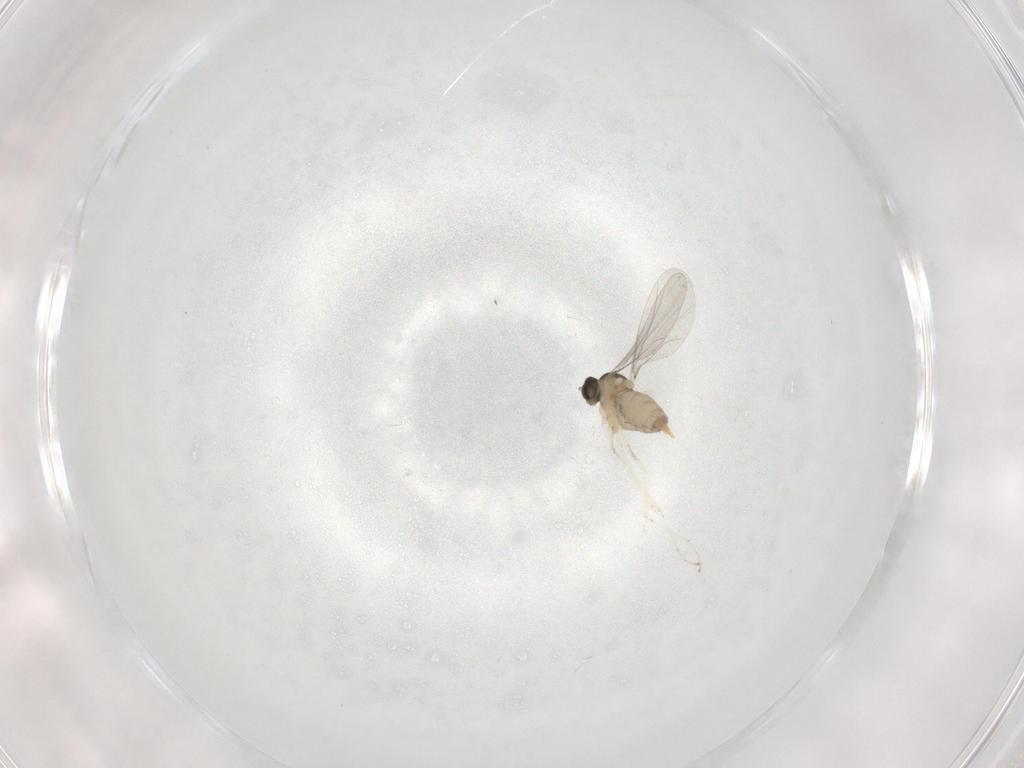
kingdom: Animalia
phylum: Arthropoda
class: Insecta
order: Diptera
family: Cecidomyiidae
